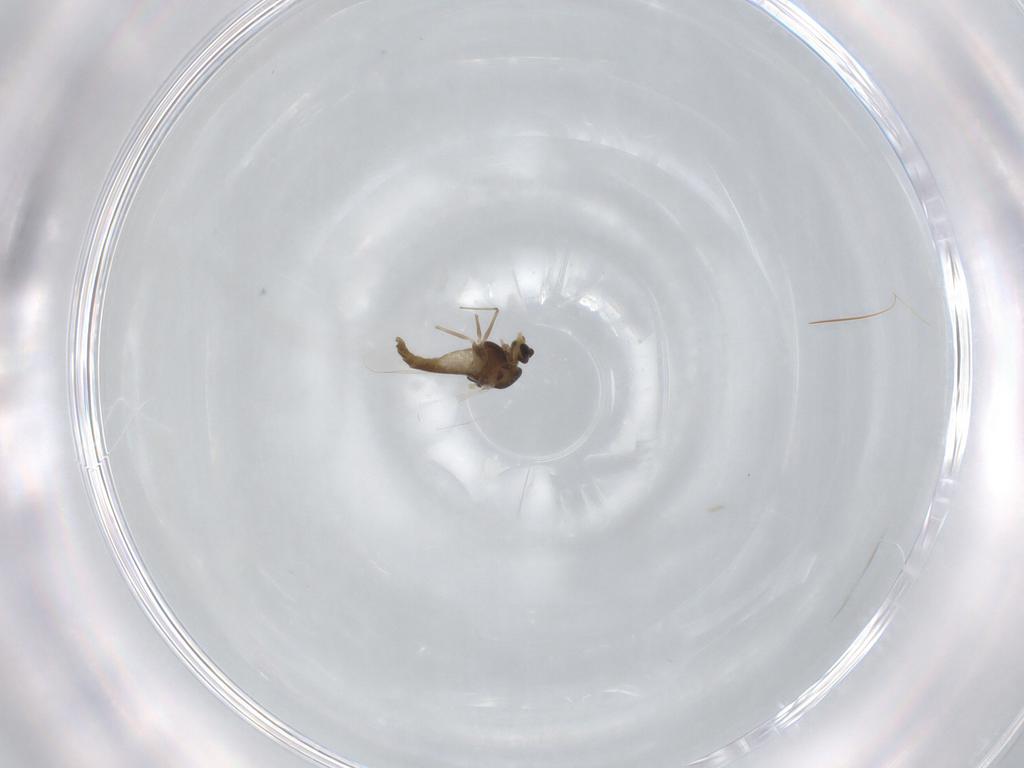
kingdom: Animalia
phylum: Arthropoda
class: Insecta
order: Diptera
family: Chironomidae
